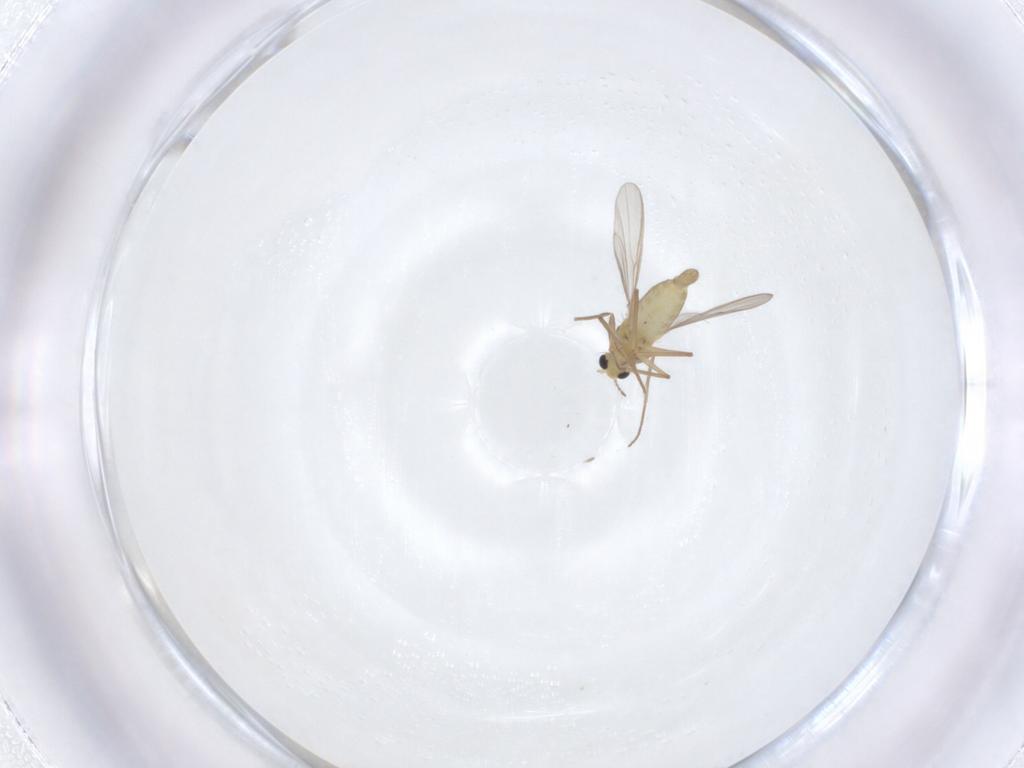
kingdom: Animalia
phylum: Arthropoda
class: Insecta
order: Diptera
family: Chironomidae
